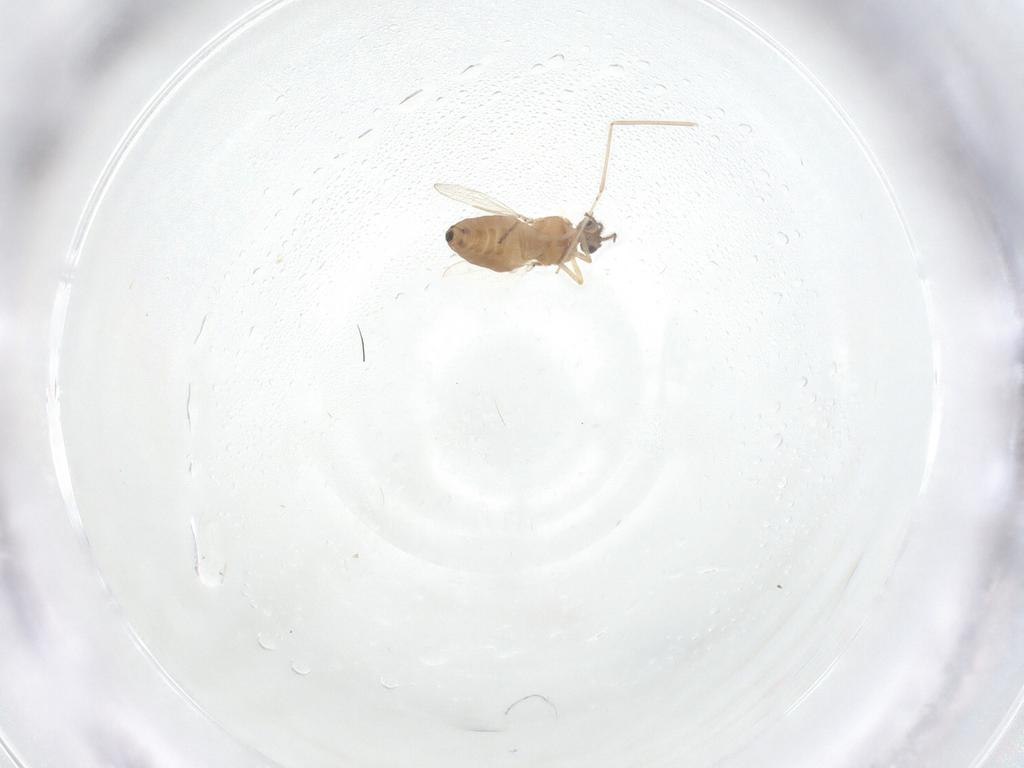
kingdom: Animalia
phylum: Arthropoda
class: Insecta
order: Diptera
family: Ceratopogonidae
